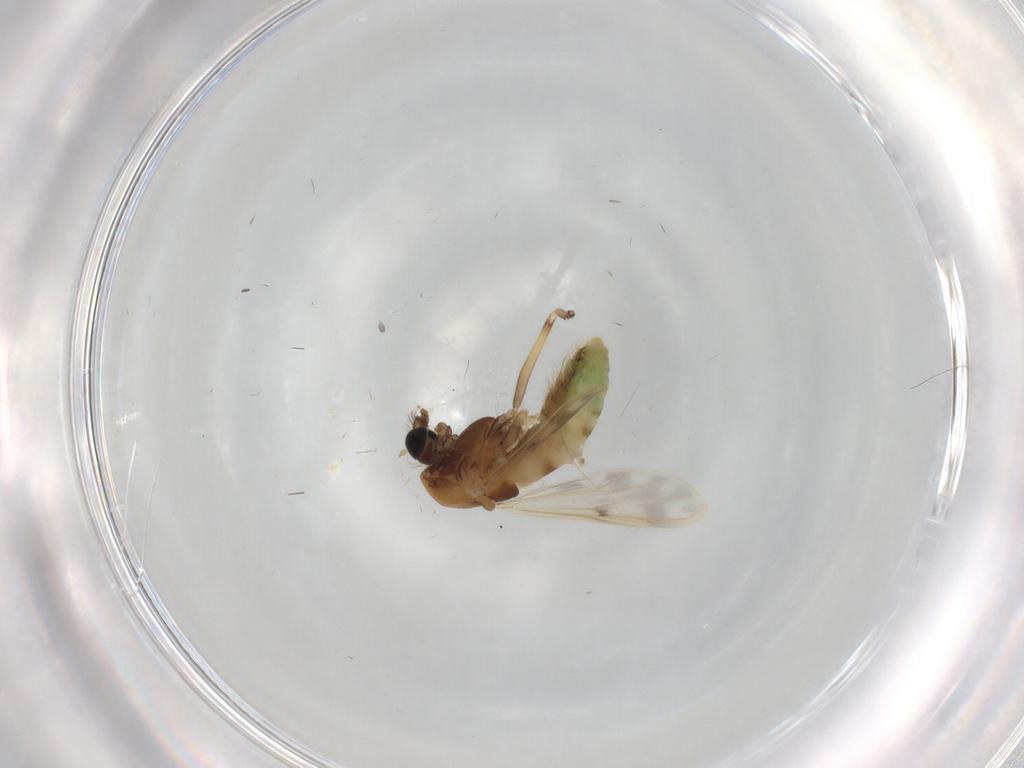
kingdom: Animalia
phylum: Arthropoda
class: Insecta
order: Diptera
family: Chironomidae
